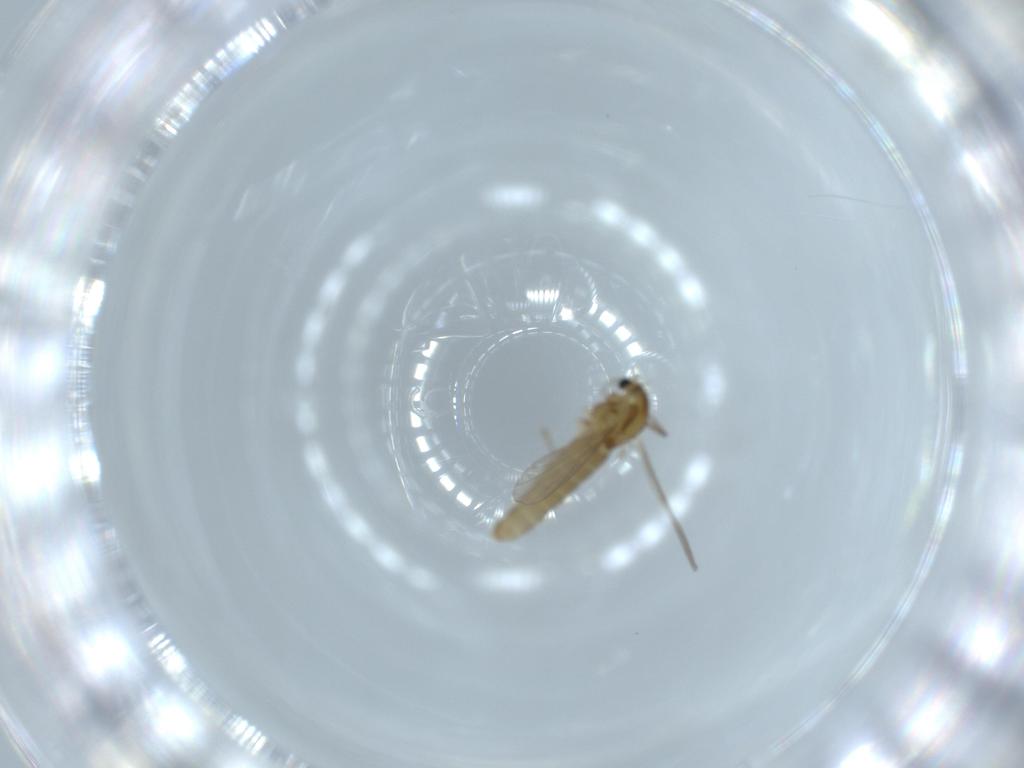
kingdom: Animalia
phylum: Arthropoda
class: Insecta
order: Diptera
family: Chironomidae
